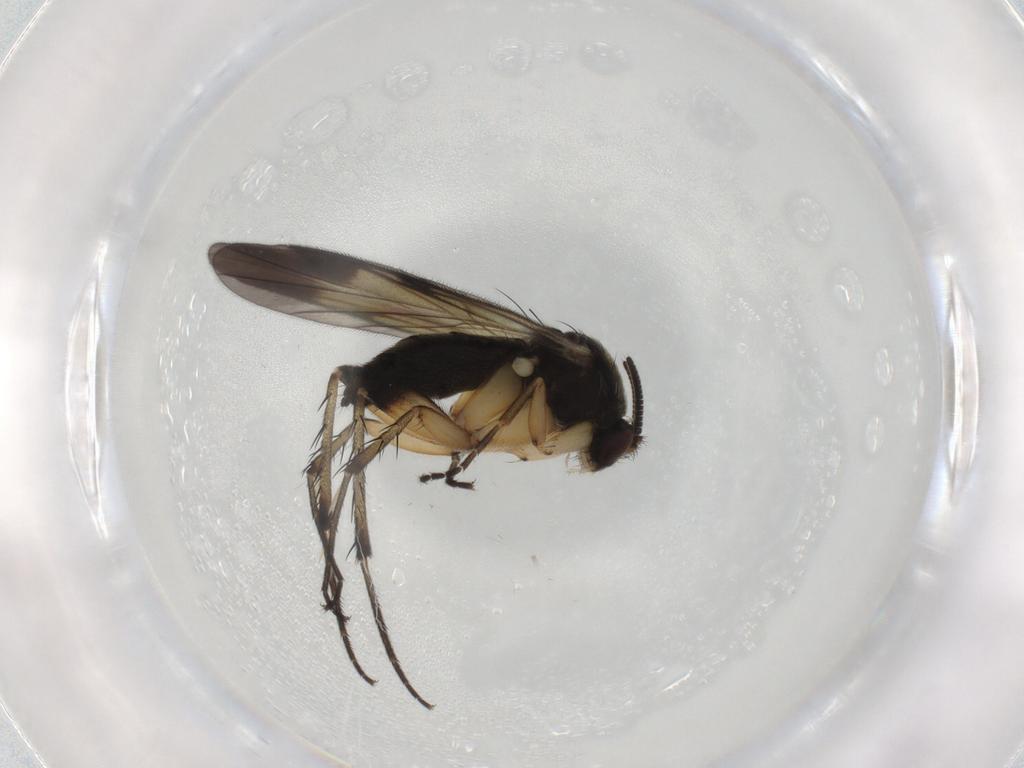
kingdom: Animalia
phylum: Arthropoda
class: Insecta
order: Diptera
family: Mycetophilidae
